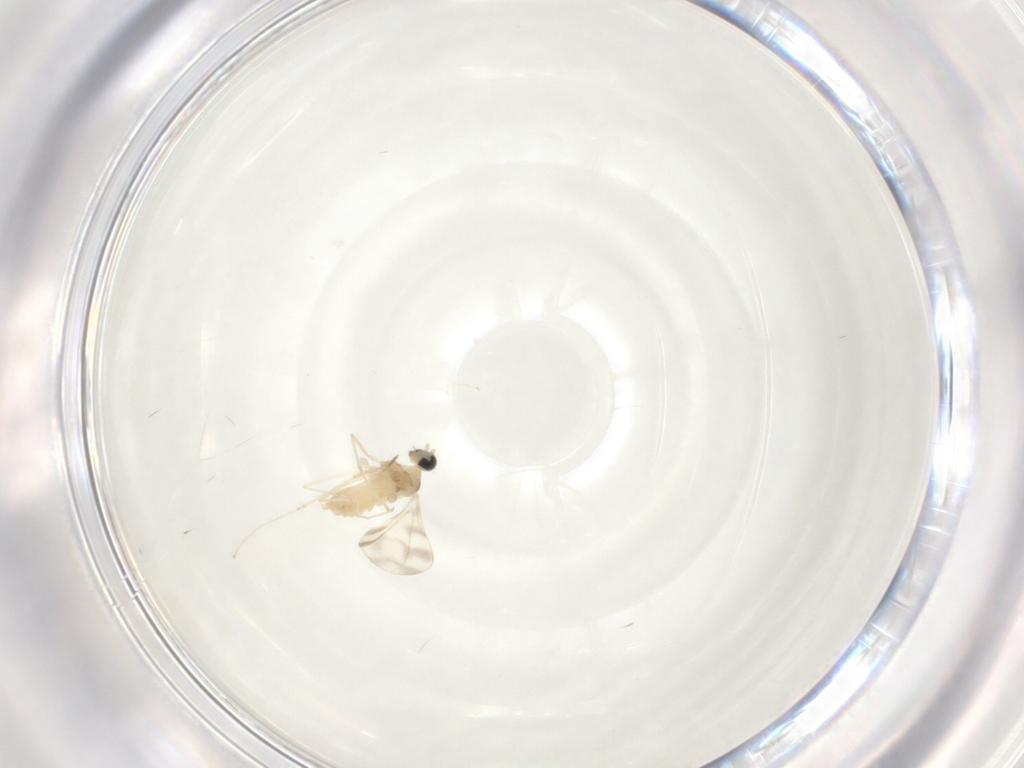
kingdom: Animalia
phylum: Arthropoda
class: Insecta
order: Diptera
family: Cecidomyiidae
